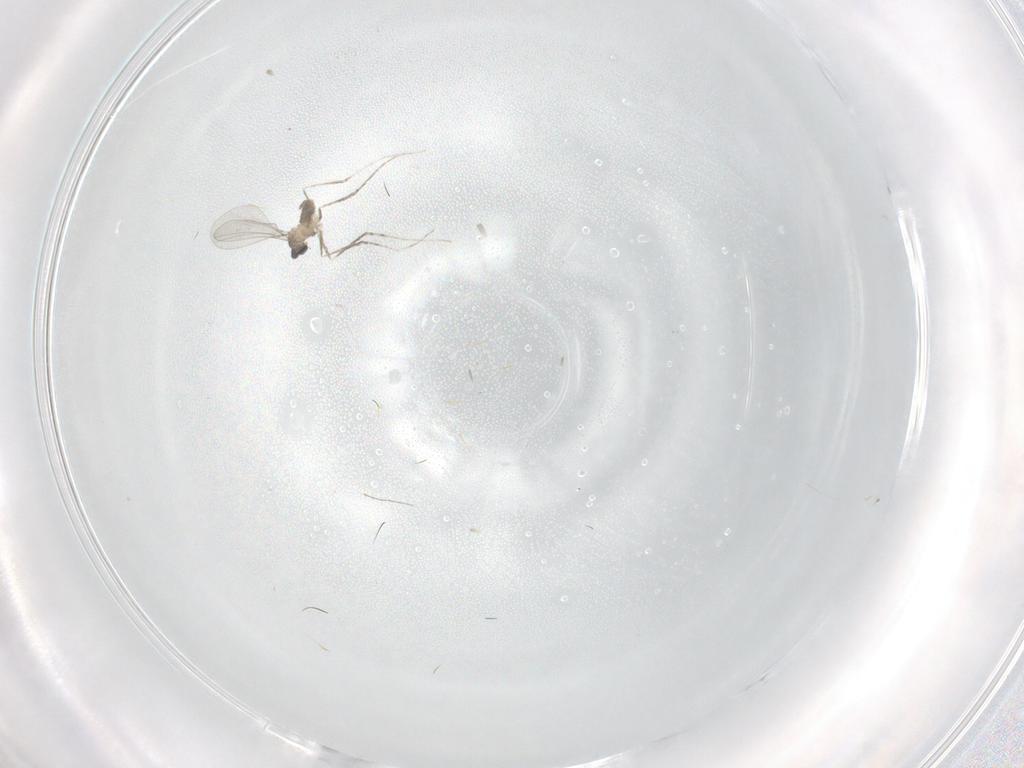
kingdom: Animalia
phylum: Arthropoda
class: Insecta
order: Diptera
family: Cecidomyiidae
